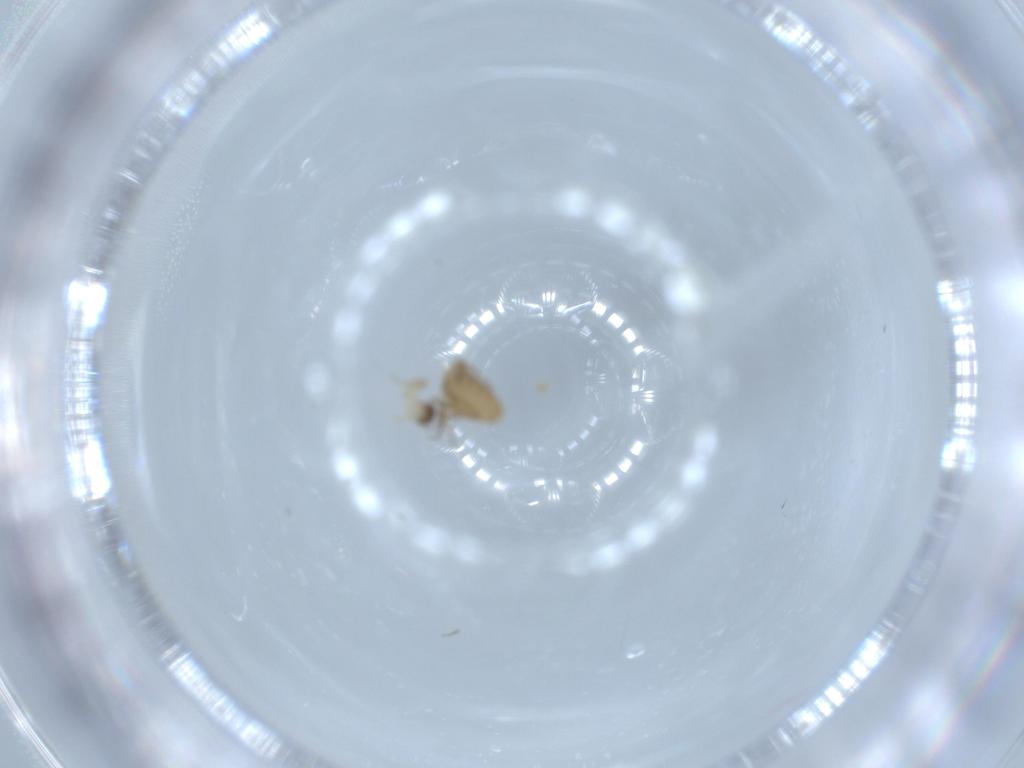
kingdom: Animalia
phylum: Arthropoda
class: Insecta
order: Diptera
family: Phoridae
